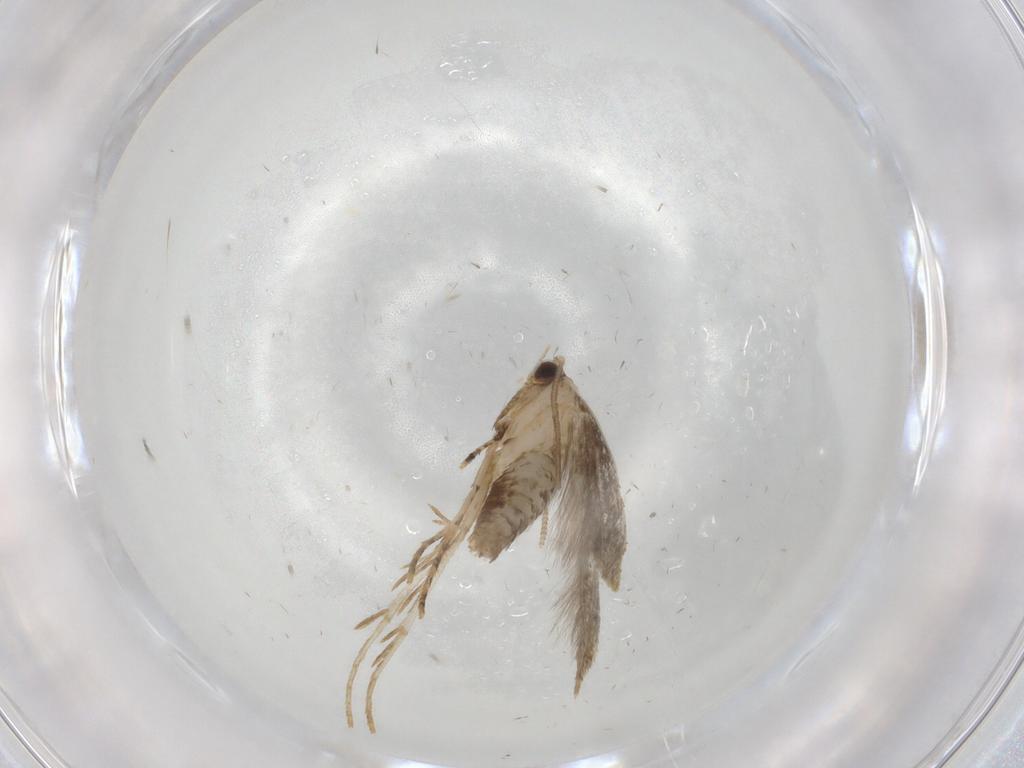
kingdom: Animalia
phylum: Arthropoda
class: Insecta
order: Lepidoptera
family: Tineidae
